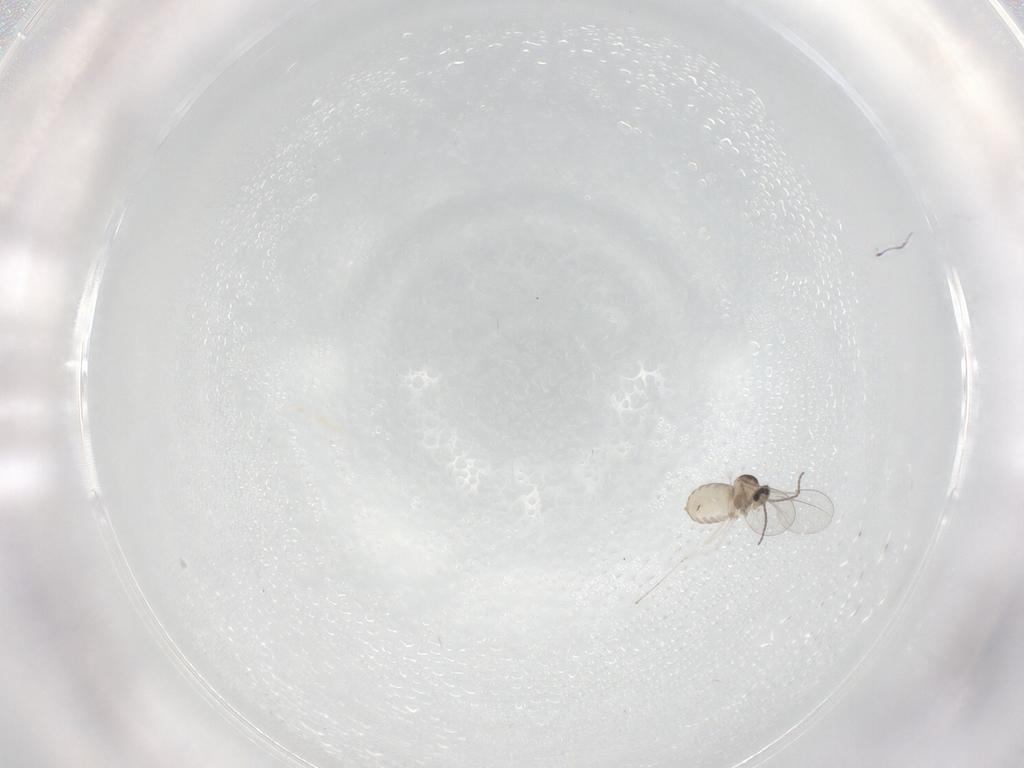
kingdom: Animalia
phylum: Arthropoda
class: Insecta
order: Diptera
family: Cecidomyiidae
